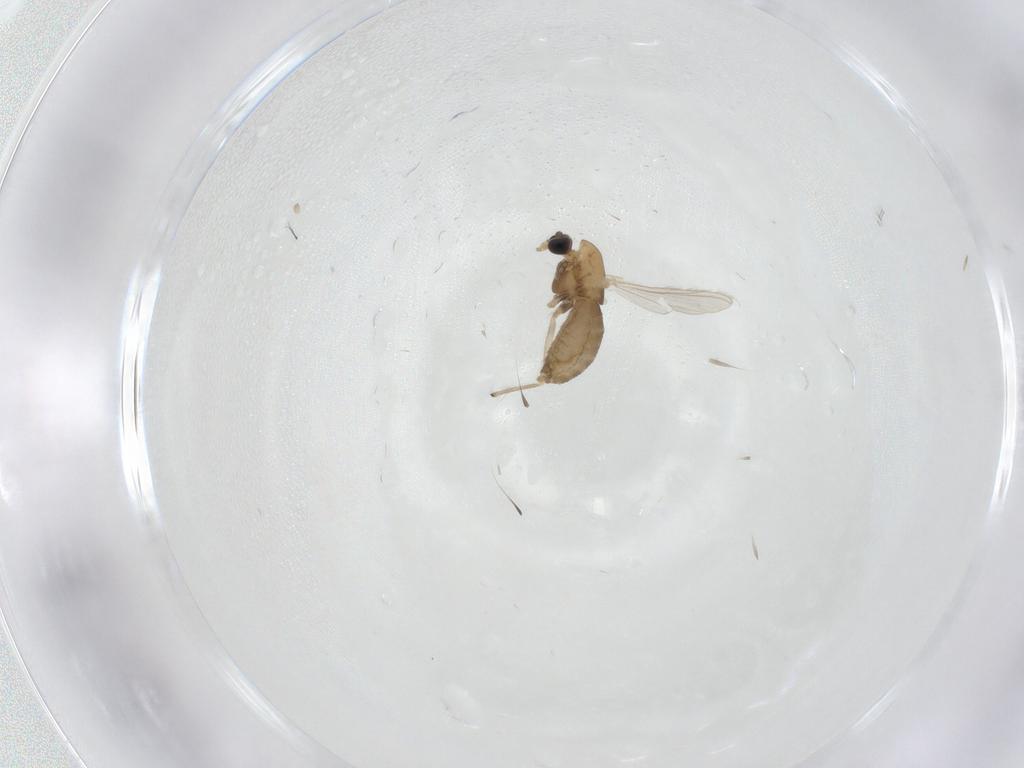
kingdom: Animalia
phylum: Arthropoda
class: Insecta
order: Diptera
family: Chironomidae
